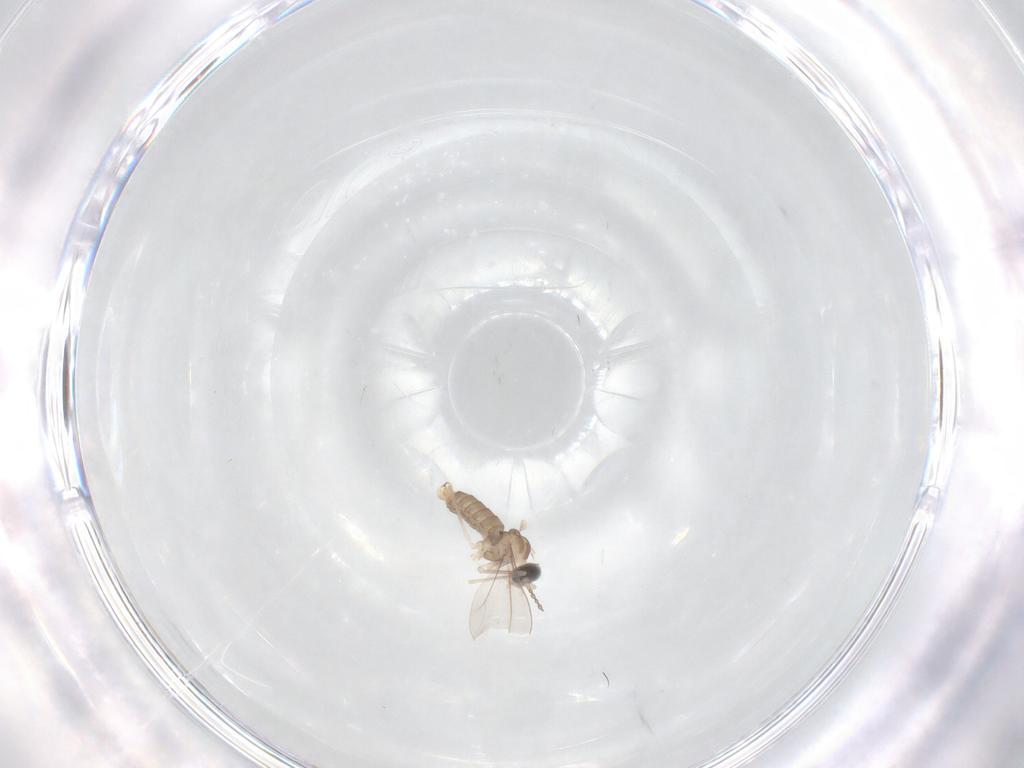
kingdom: Animalia
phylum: Arthropoda
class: Insecta
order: Diptera
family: Cecidomyiidae
